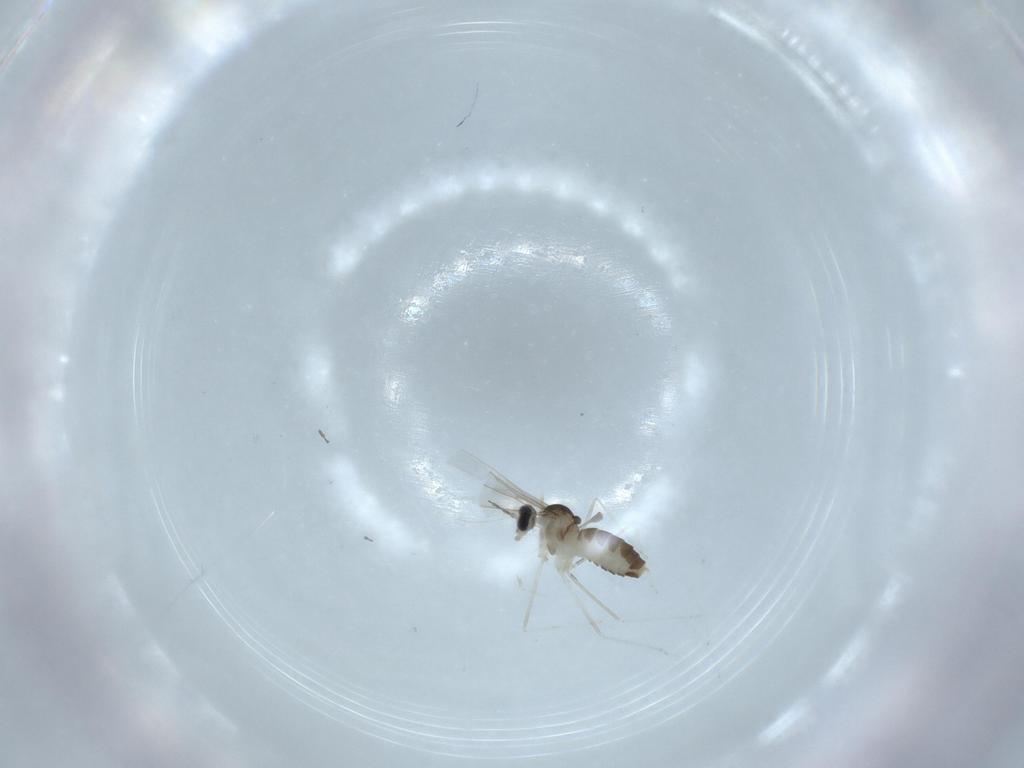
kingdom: Animalia
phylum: Arthropoda
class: Insecta
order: Diptera
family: Cecidomyiidae
